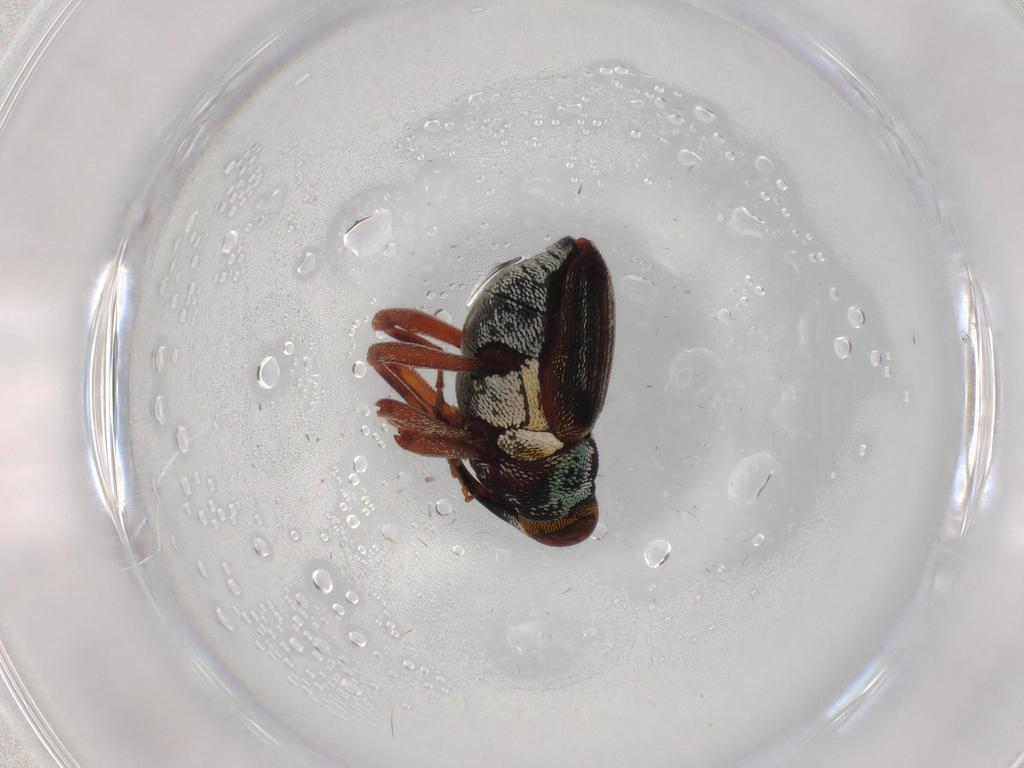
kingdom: Animalia
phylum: Arthropoda
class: Insecta
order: Coleoptera
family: Curculionidae
